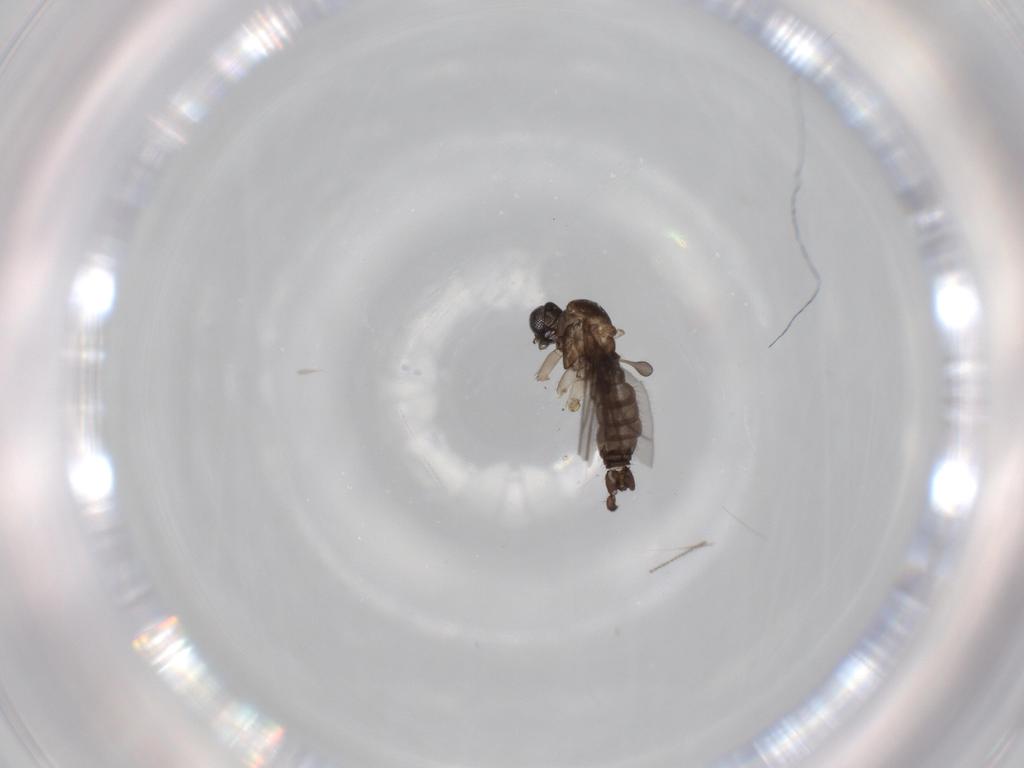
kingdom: Animalia
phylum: Arthropoda
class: Insecta
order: Diptera
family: Sciaridae
